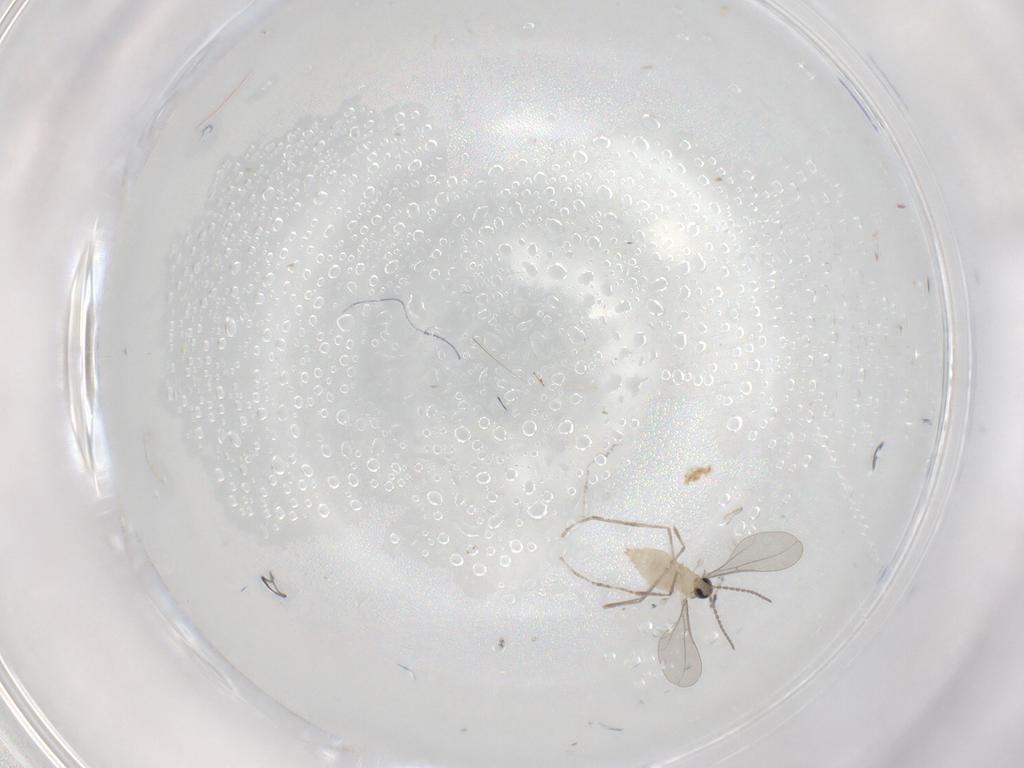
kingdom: Animalia
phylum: Arthropoda
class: Insecta
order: Diptera
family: Cecidomyiidae
